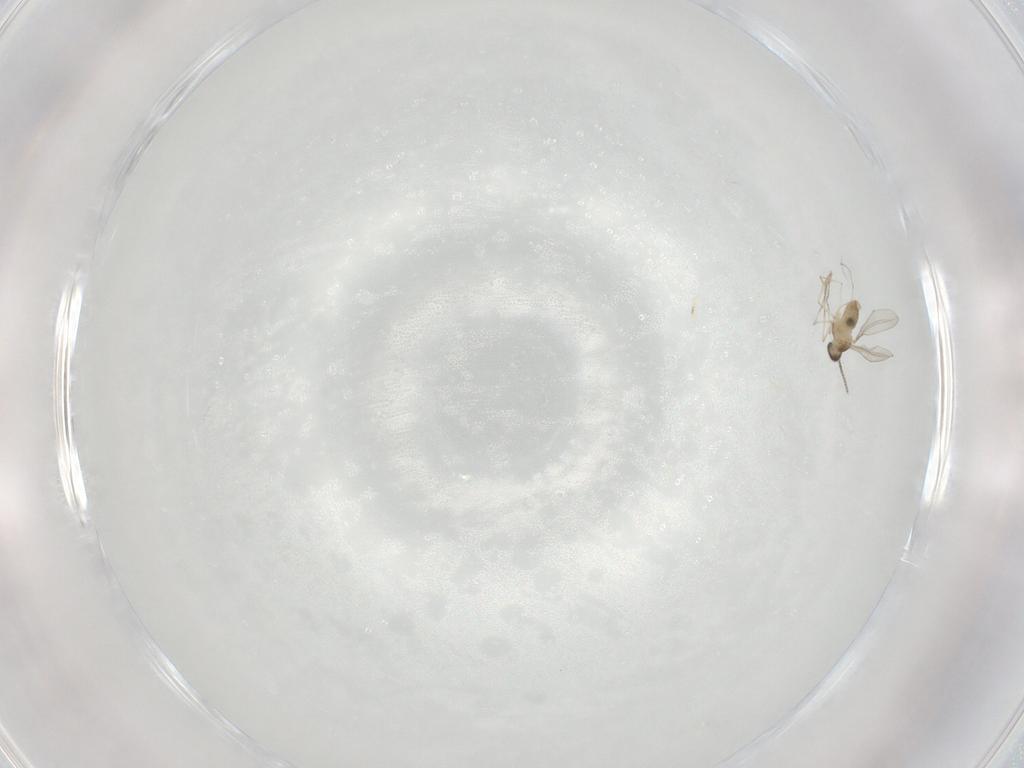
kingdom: Animalia
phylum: Arthropoda
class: Insecta
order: Diptera
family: Cecidomyiidae
